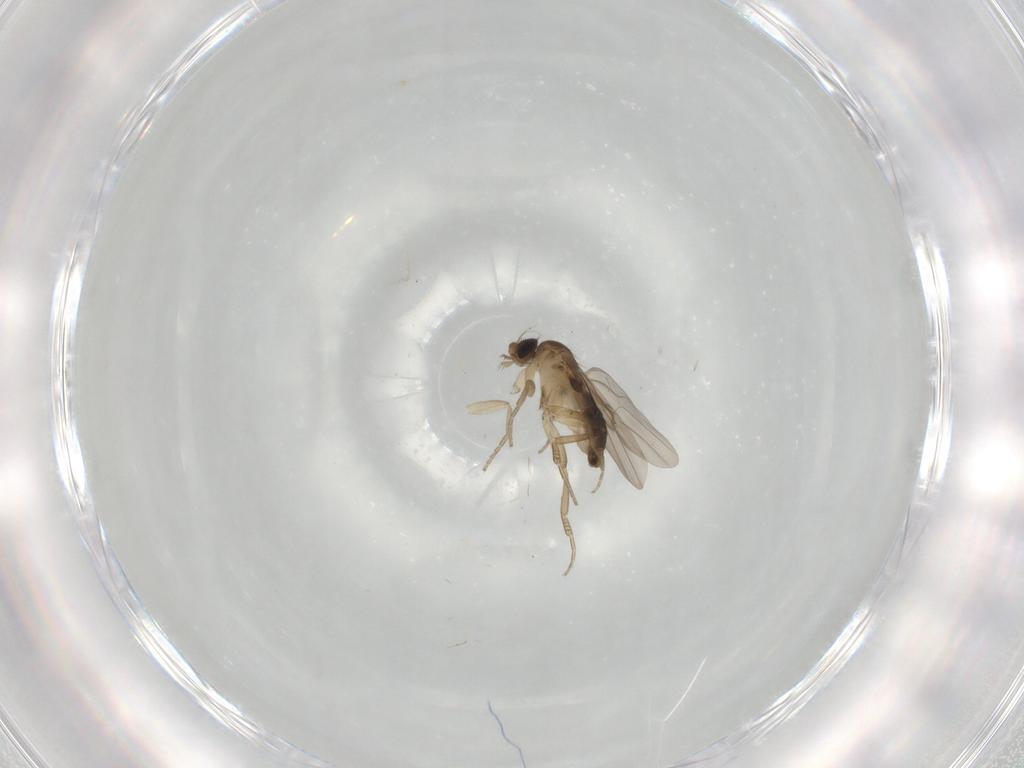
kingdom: Animalia
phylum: Arthropoda
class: Insecta
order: Diptera
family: Phoridae
